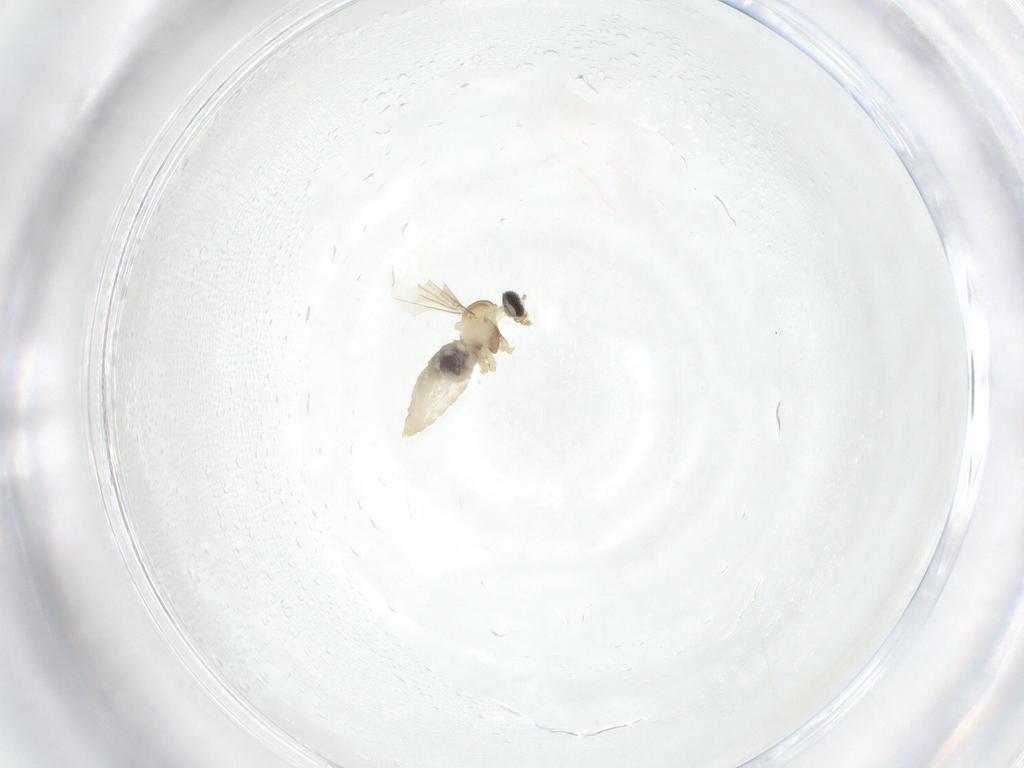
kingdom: Animalia
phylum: Arthropoda
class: Insecta
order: Diptera
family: Cecidomyiidae
